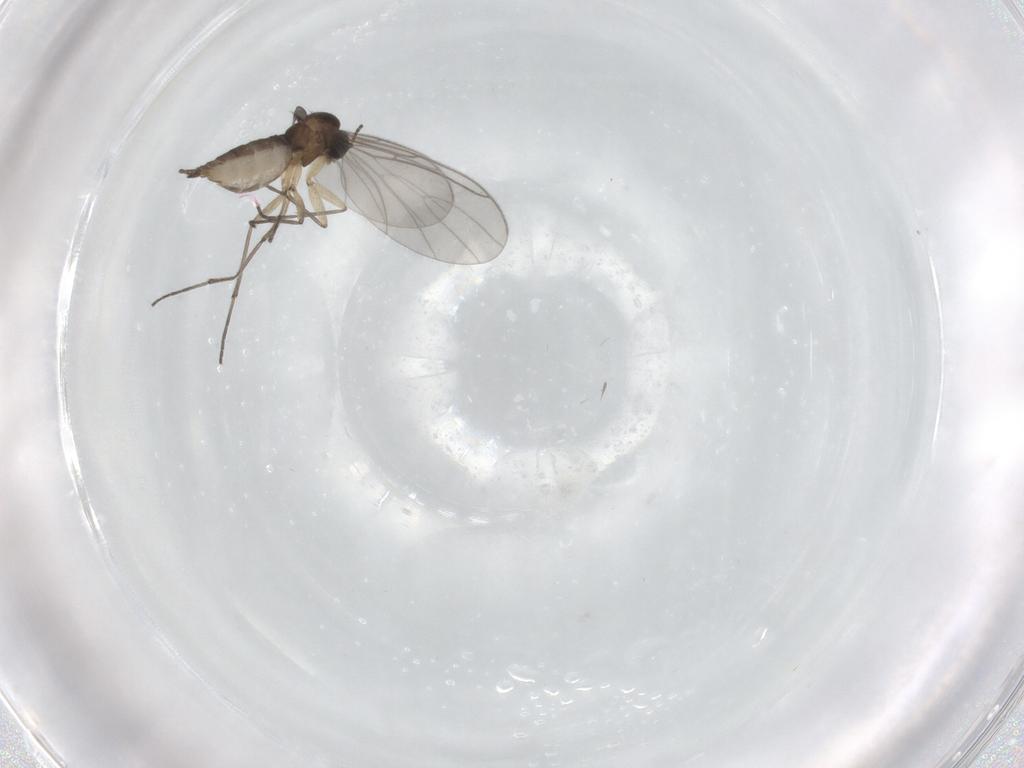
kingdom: Animalia
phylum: Arthropoda
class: Insecta
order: Diptera
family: Sciaridae
